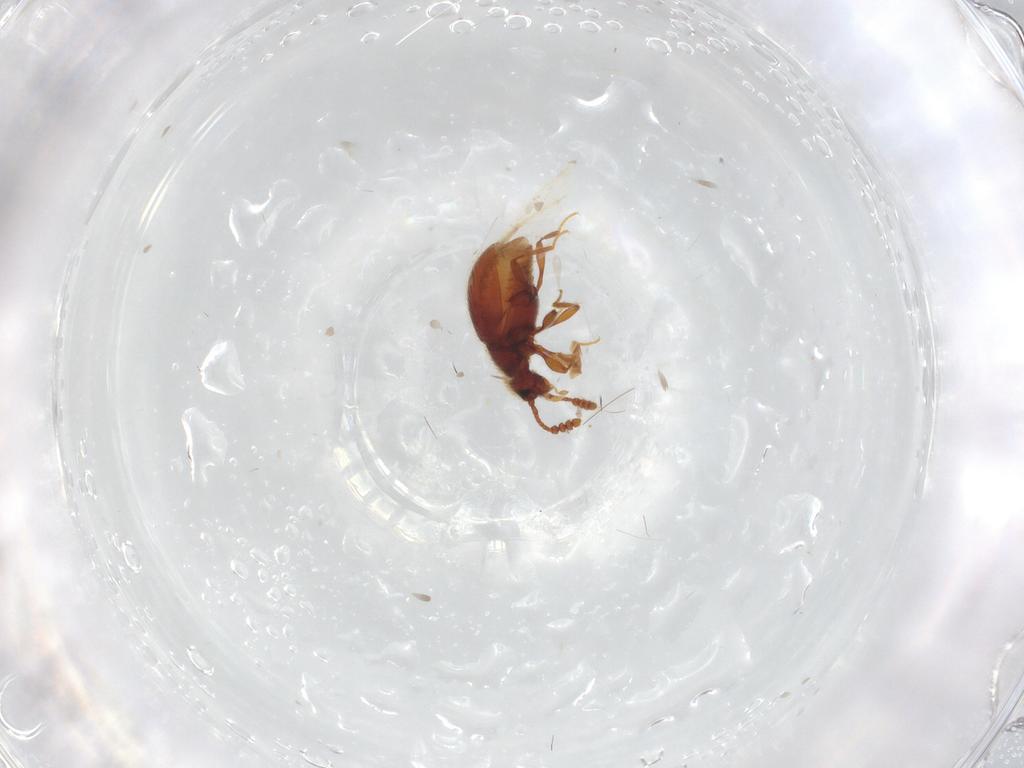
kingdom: Animalia
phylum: Arthropoda
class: Insecta
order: Coleoptera
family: Staphylinidae
